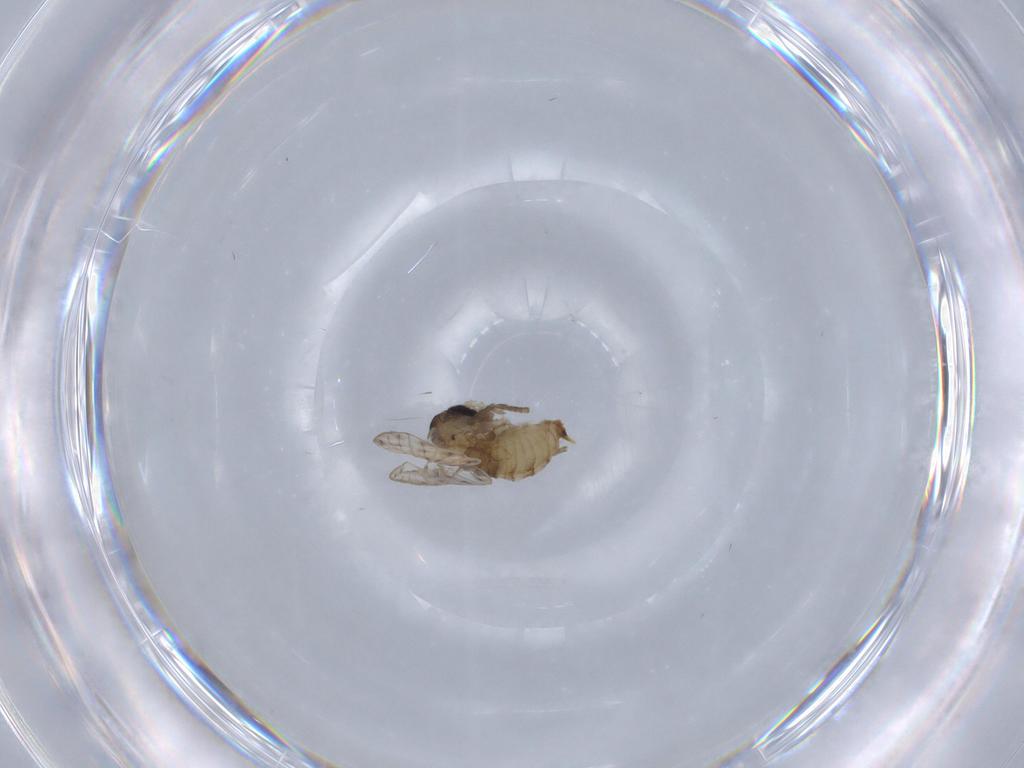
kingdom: Animalia
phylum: Arthropoda
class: Insecta
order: Diptera
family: Psychodidae
